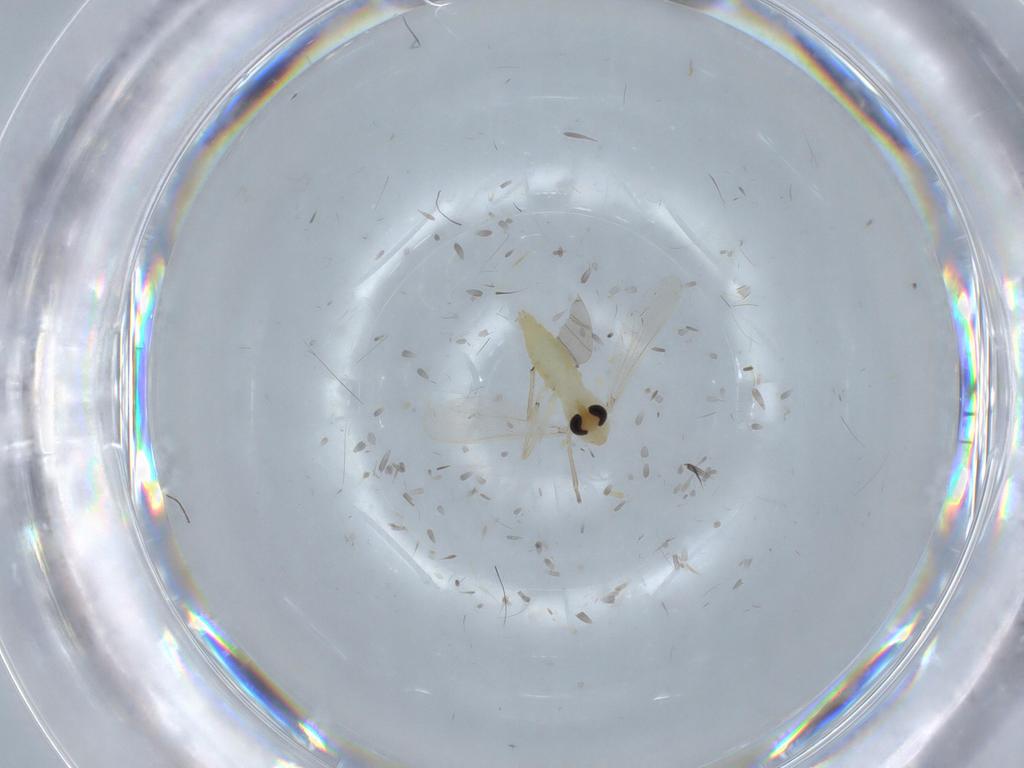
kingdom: Animalia
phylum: Arthropoda
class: Insecta
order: Diptera
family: Chironomidae
